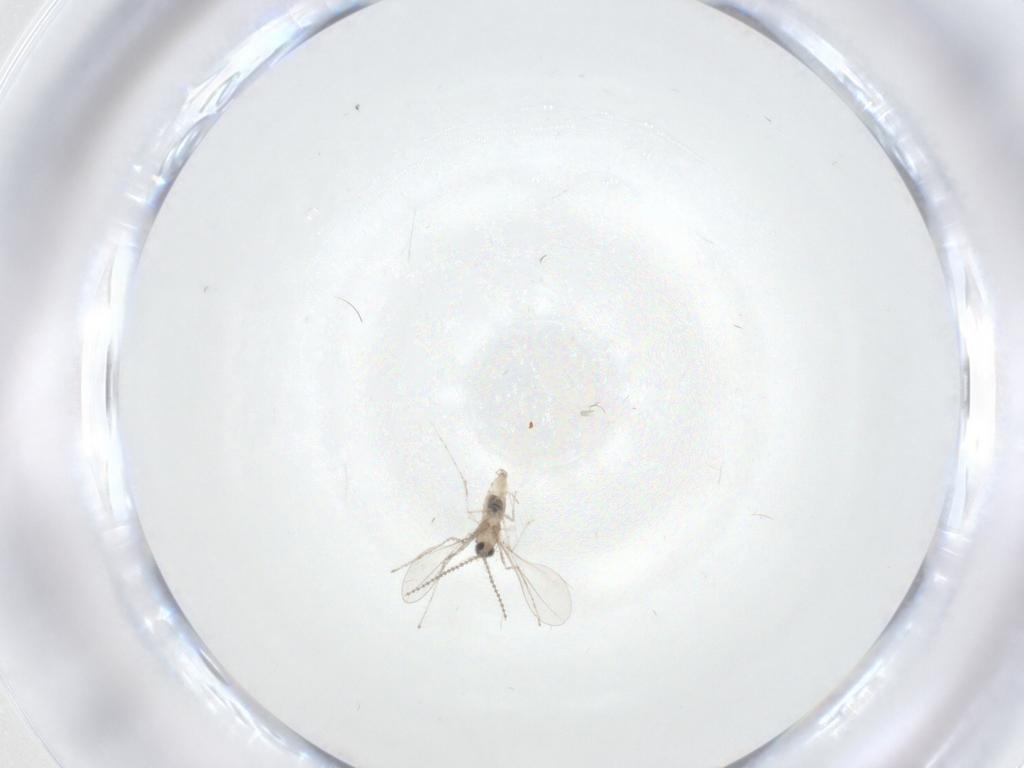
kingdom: Animalia
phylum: Arthropoda
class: Insecta
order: Diptera
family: Cecidomyiidae
